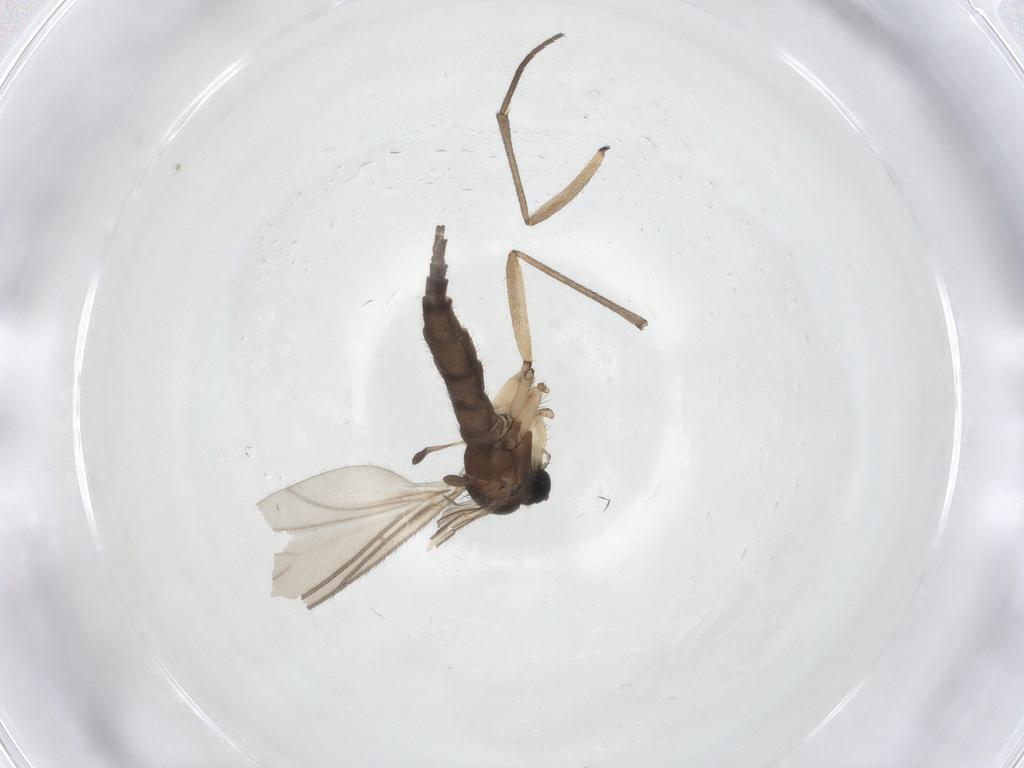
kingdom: Animalia
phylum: Arthropoda
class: Insecta
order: Diptera
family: Sciaridae
